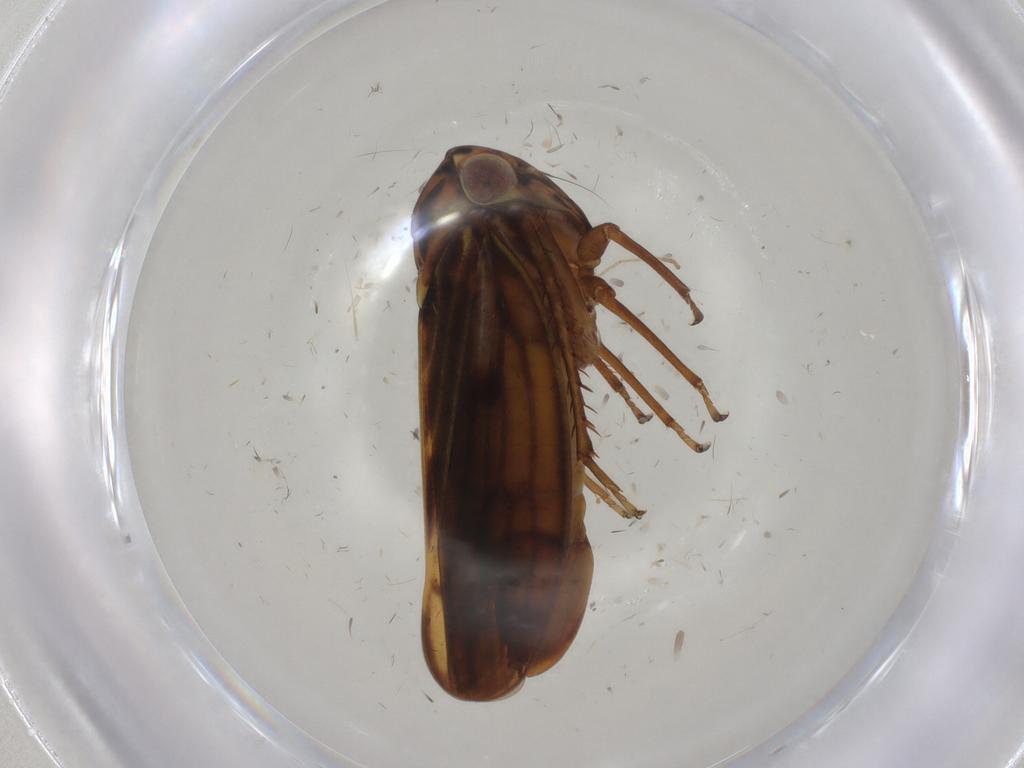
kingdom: Animalia
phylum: Arthropoda
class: Insecta
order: Hemiptera
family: Cicadellidae
